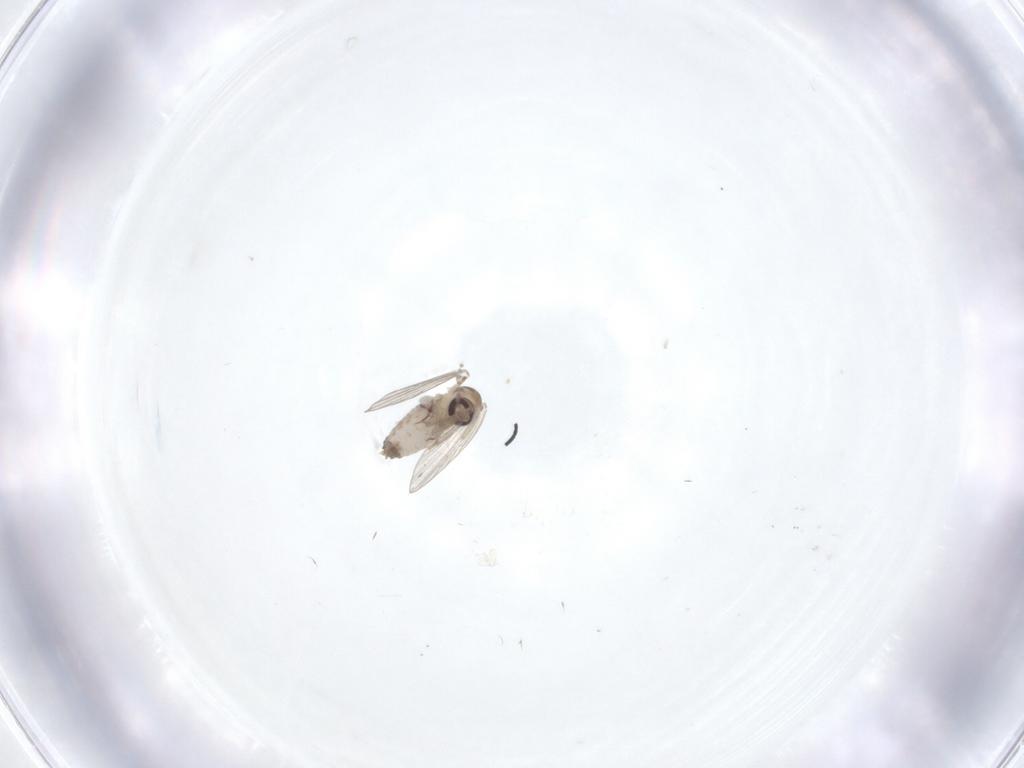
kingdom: Animalia
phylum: Arthropoda
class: Insecta
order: Diptera
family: Psychodidae
